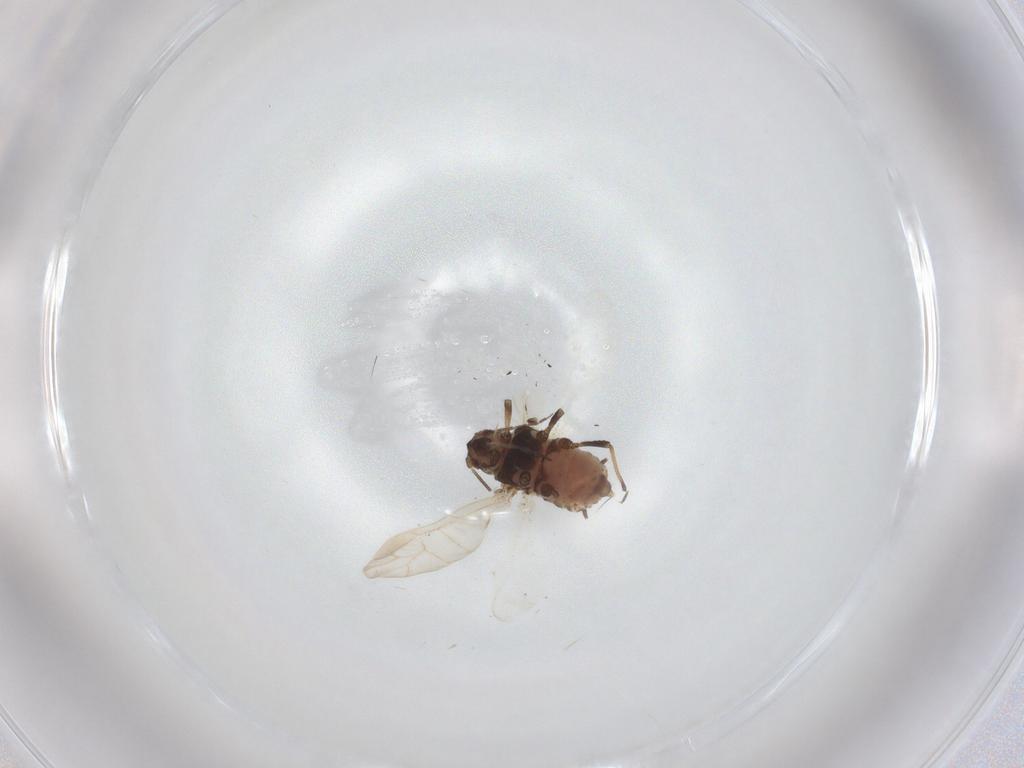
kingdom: Animalia
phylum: Arthropoda
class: Insecta
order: Hemiptera
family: Aphididae
